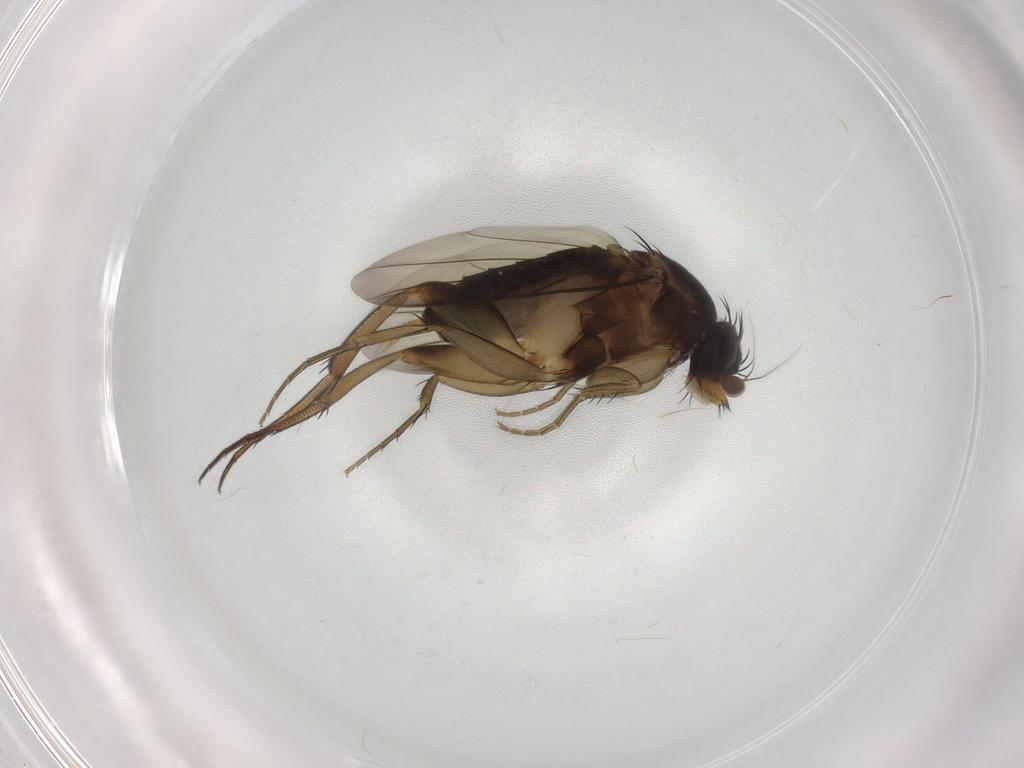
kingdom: Animalia
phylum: Arthropoda
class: Insecta
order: Diptera
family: Phoridae
